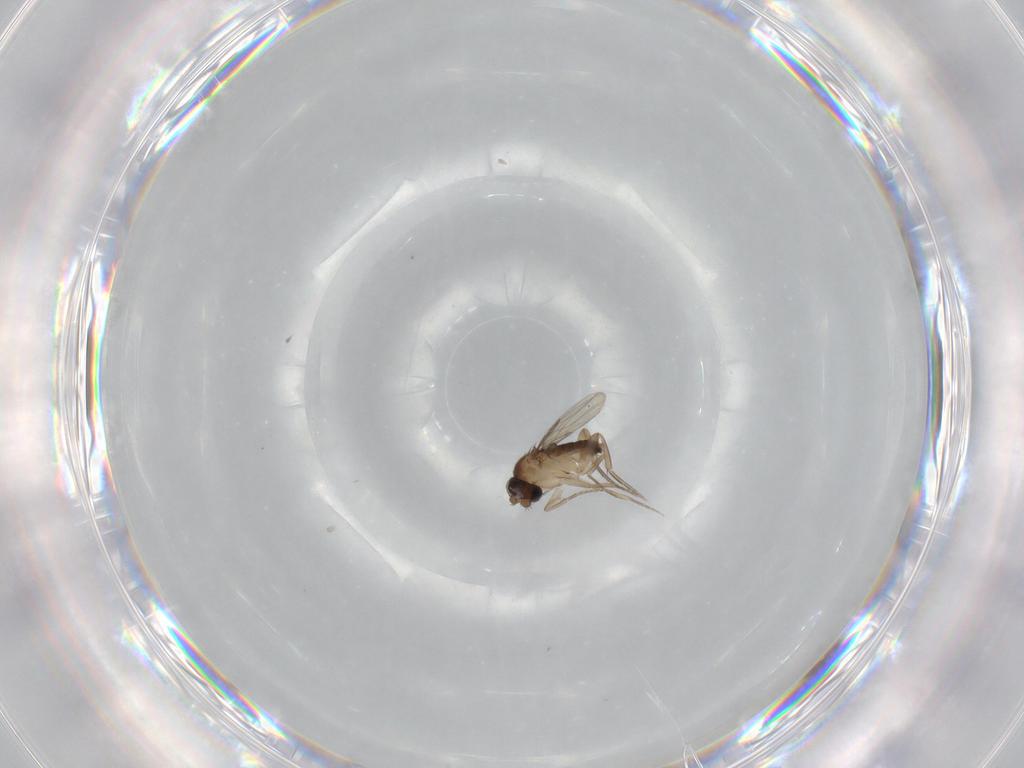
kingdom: Animalia
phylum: Arthropoda
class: Insecta
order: Diptera
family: Phoridae
